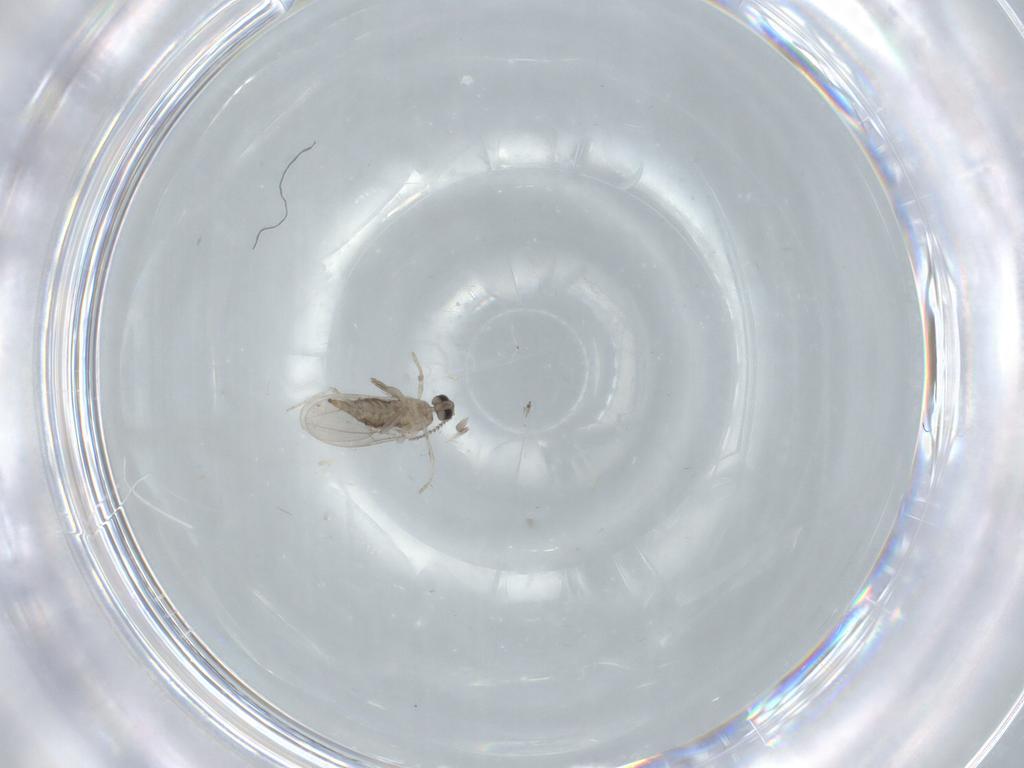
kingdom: Animalia
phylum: Arthropoda
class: Insecta
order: Diptera
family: Cecidomyiidae
